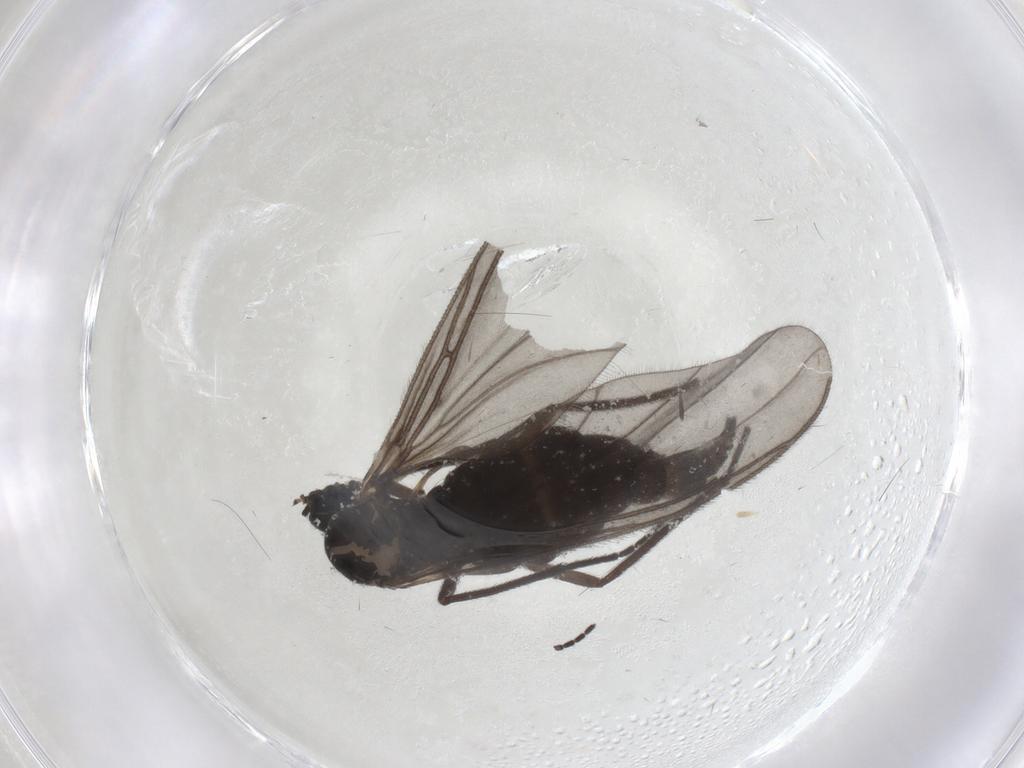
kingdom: Animalia
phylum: Arthropoda
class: Insecta
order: Diptera
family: Sciaridae
